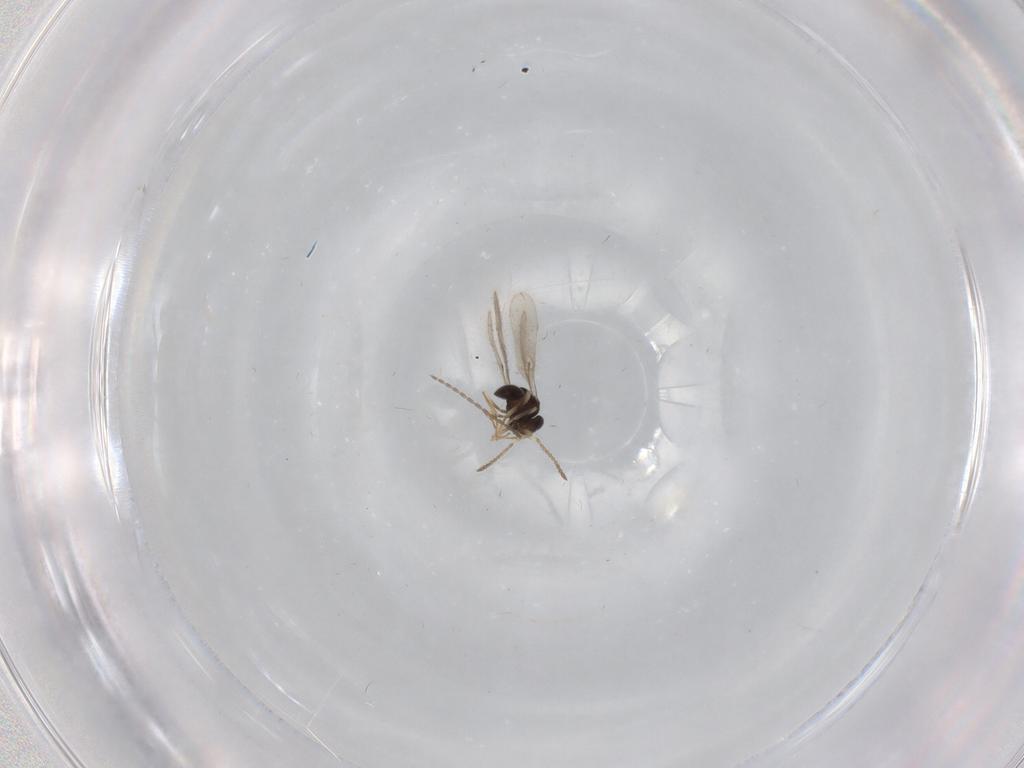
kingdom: Animalia
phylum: Arthropoda
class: Insecta
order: Hymenoptera
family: Scelionidae
